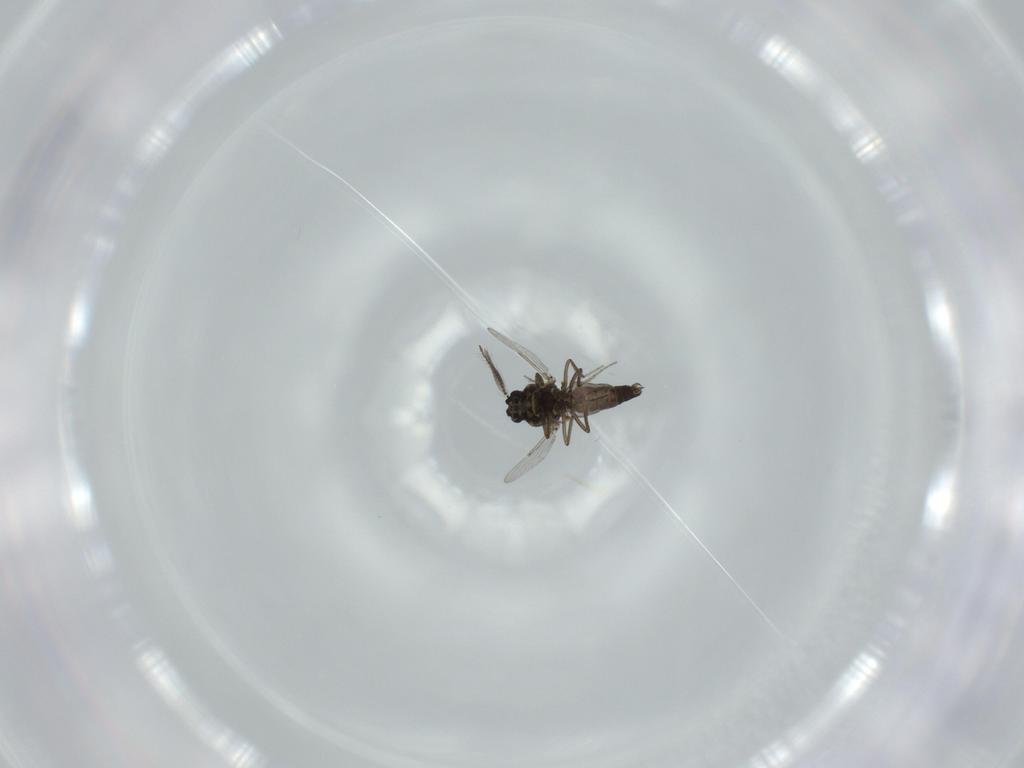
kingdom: Animalia
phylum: Arthropoda
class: Insecta
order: Diptera
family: Ceratopogonidae
